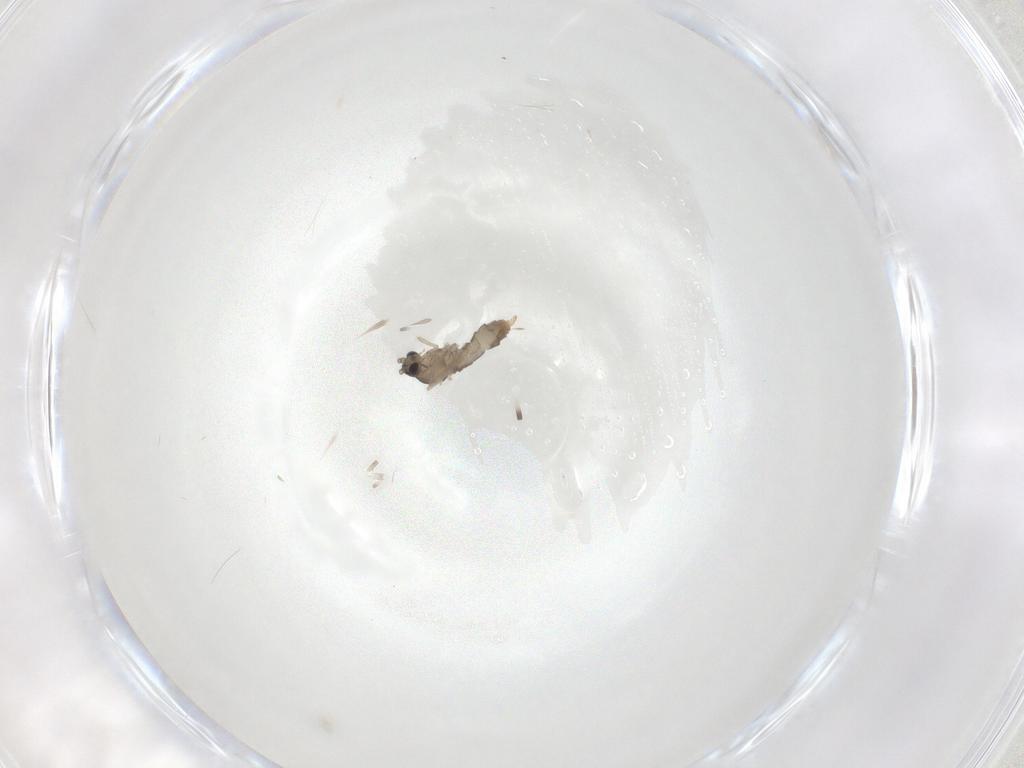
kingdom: Animalia
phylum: Arthropoda
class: Insecta
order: Diptera
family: Cecidomyiidae
